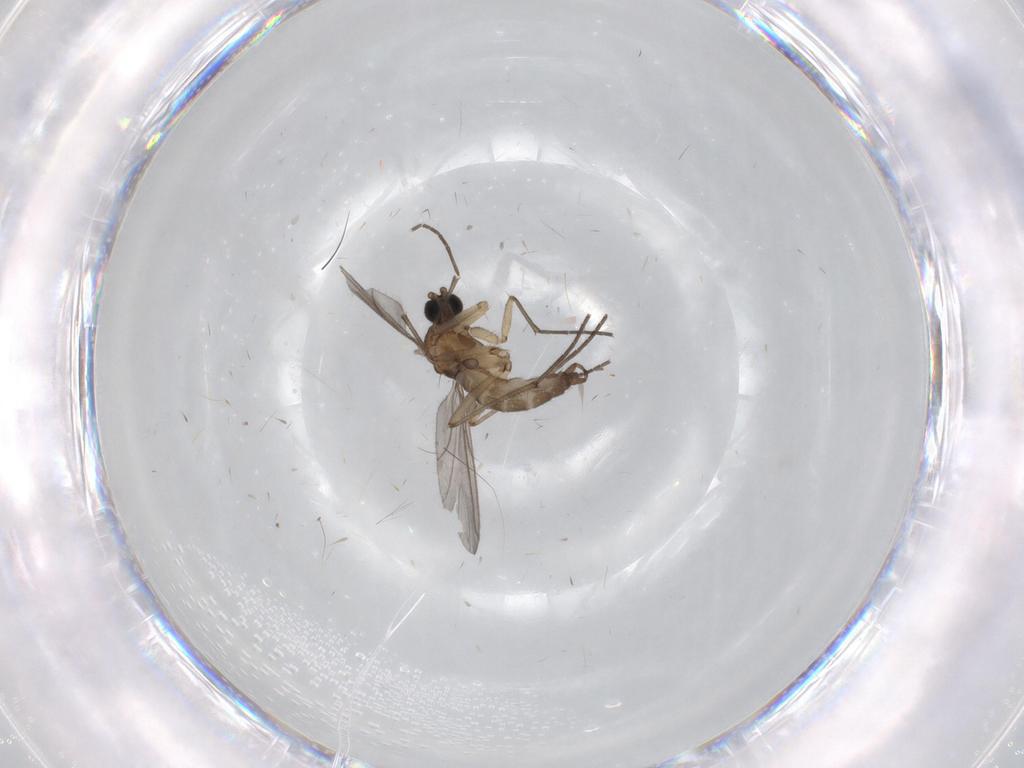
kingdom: Animalia
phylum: Arthropoda
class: Insecta
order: Diptera
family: Sciaridae
